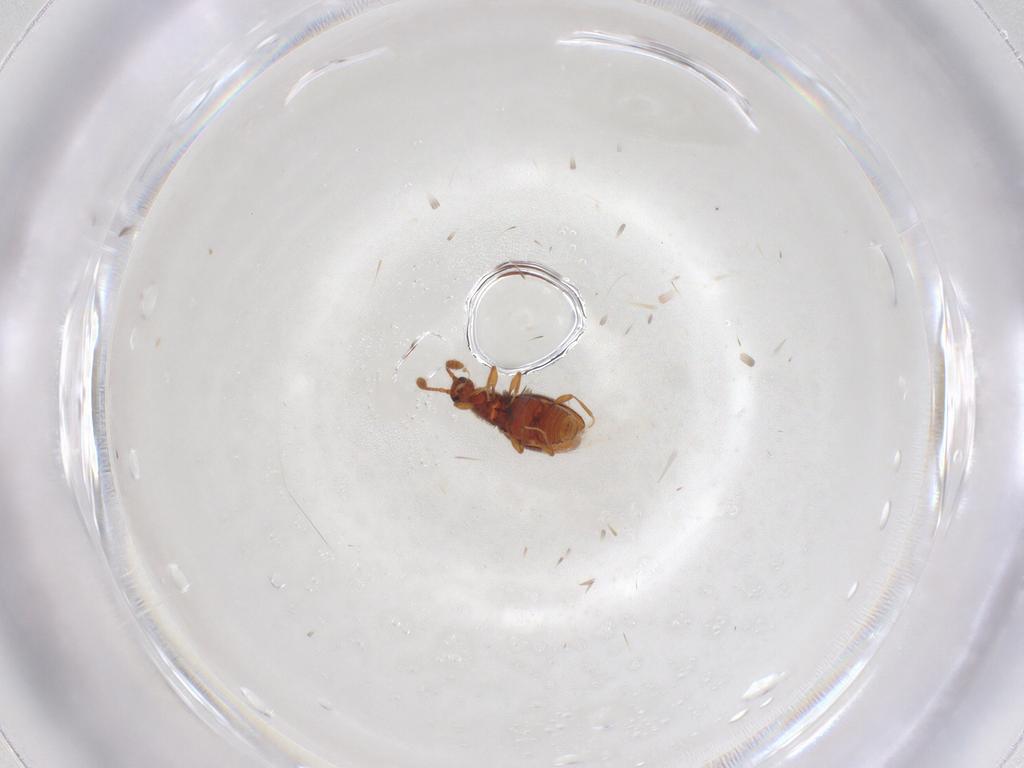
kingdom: Animalia
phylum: Arthropoda
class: Insecta
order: Coleoptera
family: Staphylinidae
